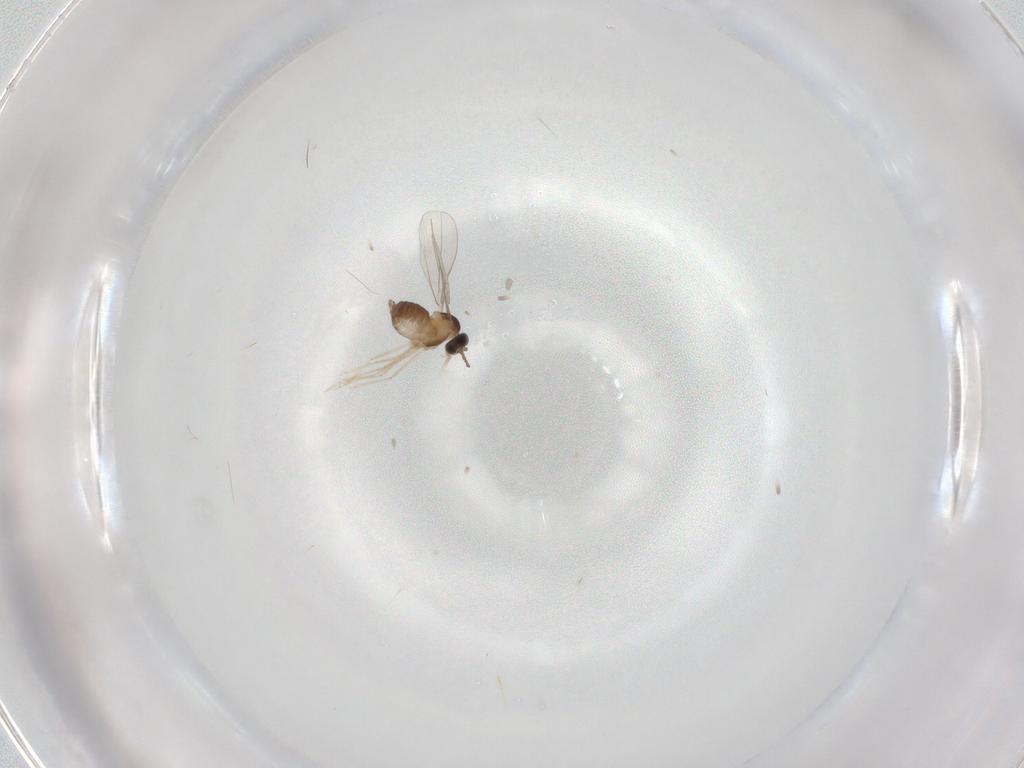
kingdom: Animalia
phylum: Arthropoda
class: Insecta
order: Diptera
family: Cecidomyiidae
